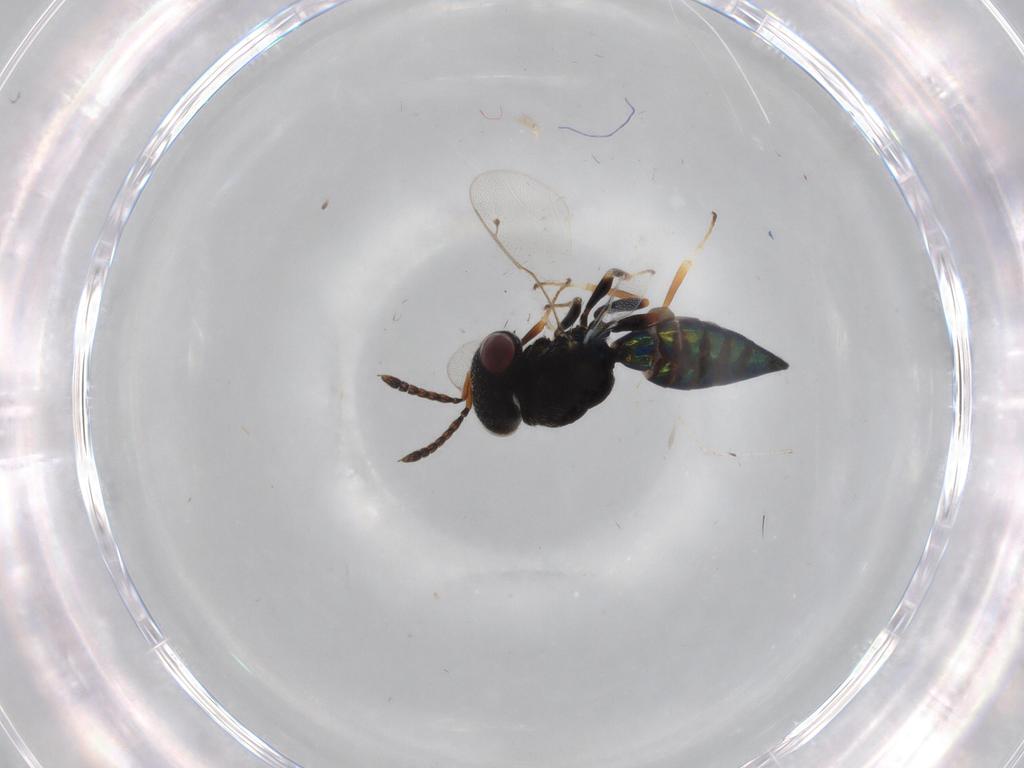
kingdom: Animalia
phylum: Arthropoda
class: Insecta
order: Hymenoptera
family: Pteromalidae
